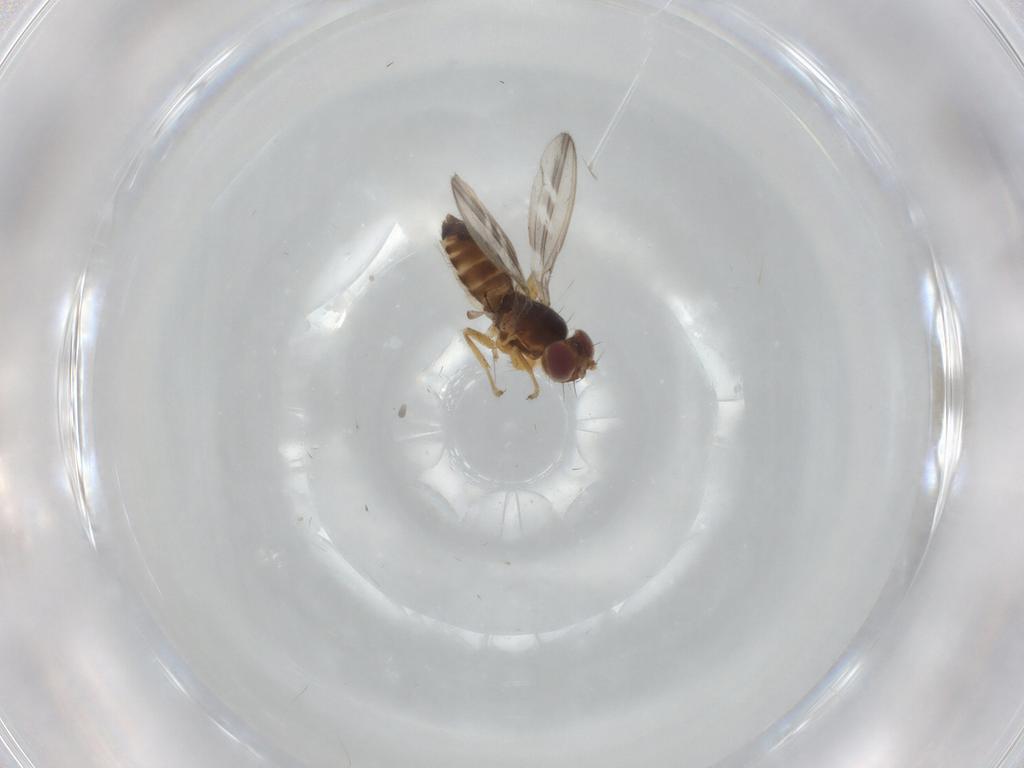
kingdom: Animalia
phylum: Arthropoda
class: Insecta
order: Diptera
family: Periscelididae
